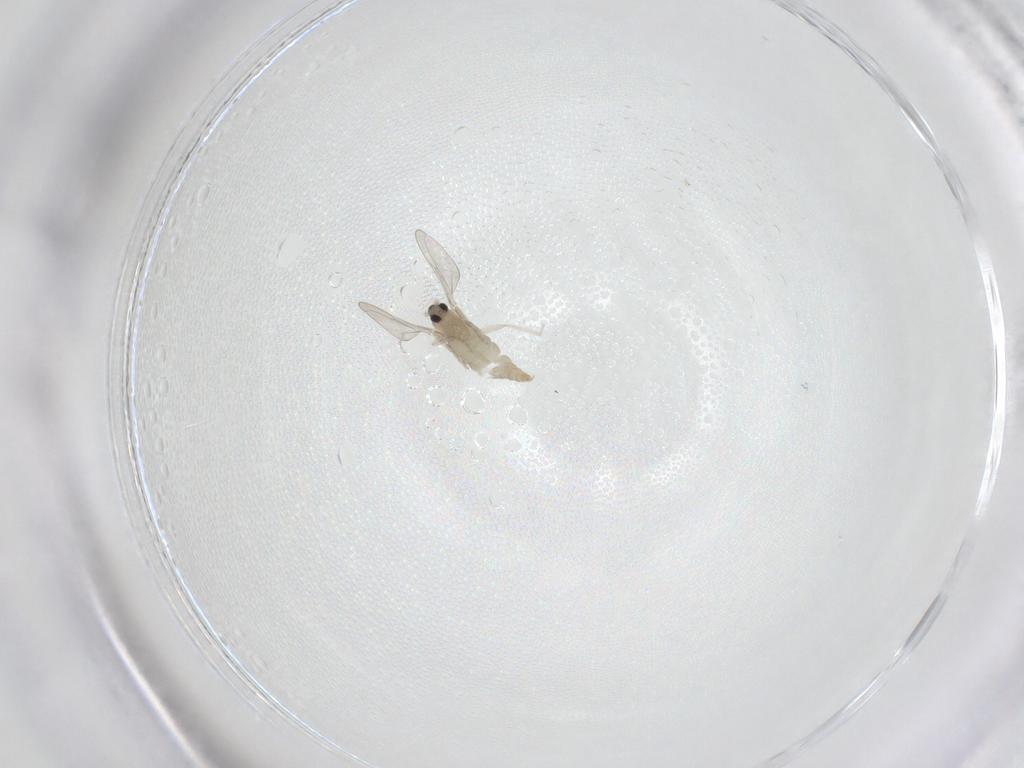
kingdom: Animalia
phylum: Arthropoda
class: Insecta
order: Diptera
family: Cecidomyiidae
